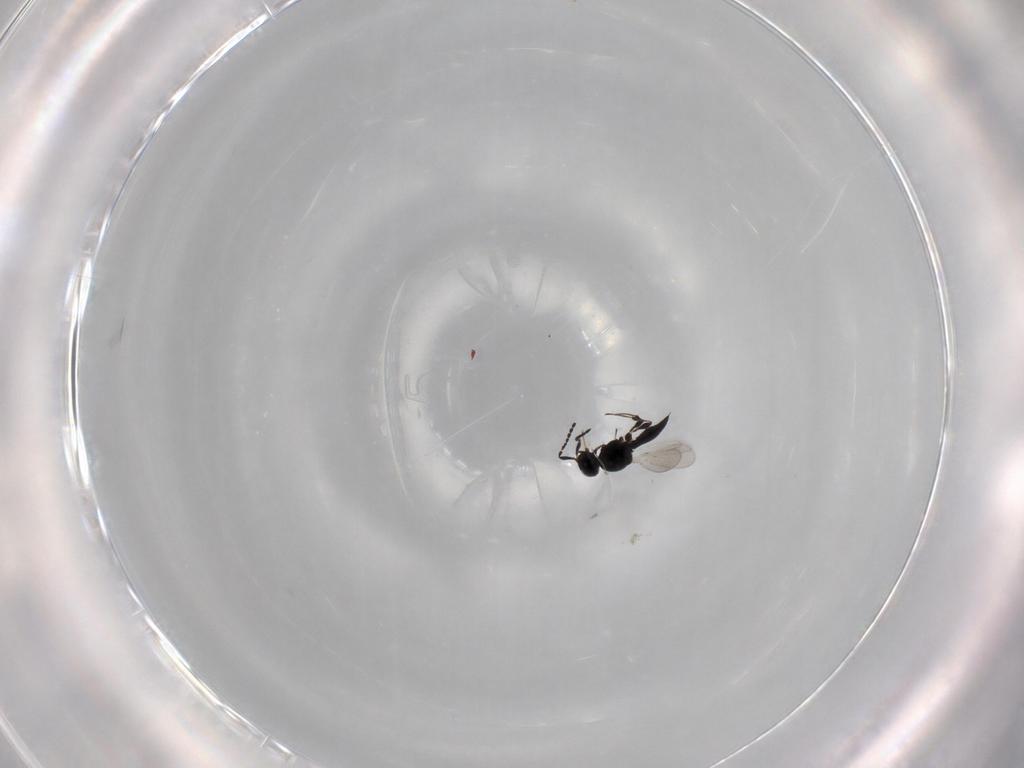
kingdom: Animalia
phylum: Arthropoda
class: Insecta
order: Hymenoptera
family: Platygastridae
